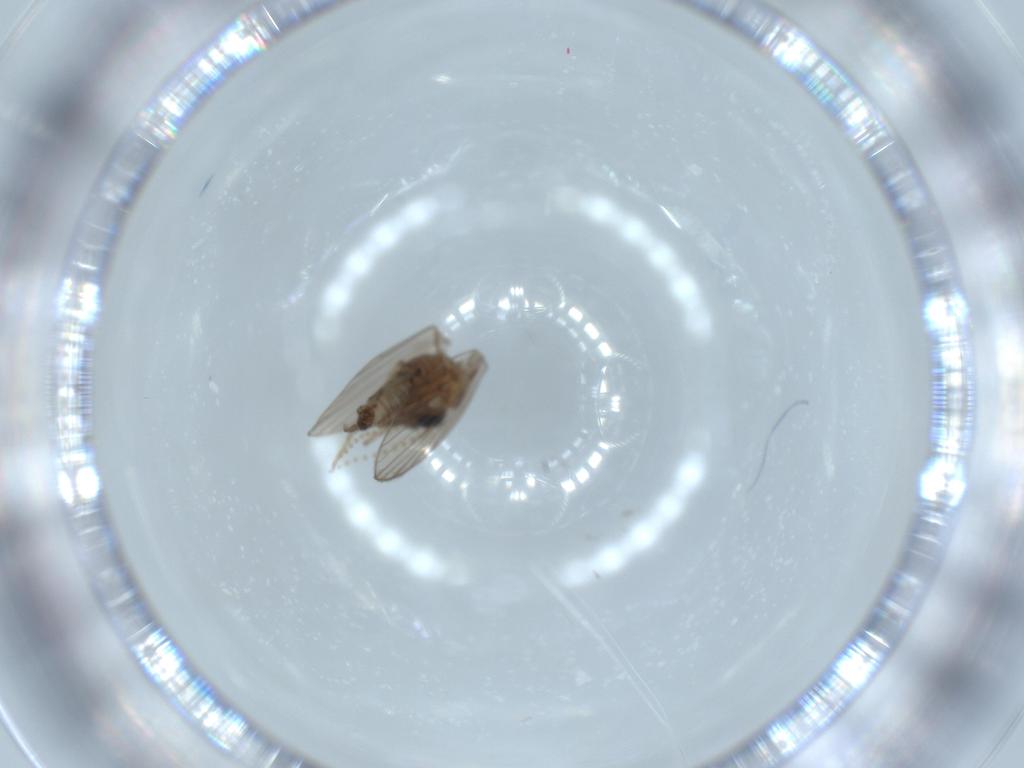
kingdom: Animalia
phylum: Arthropoda
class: Insecta
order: Diptera
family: Psychodidae
